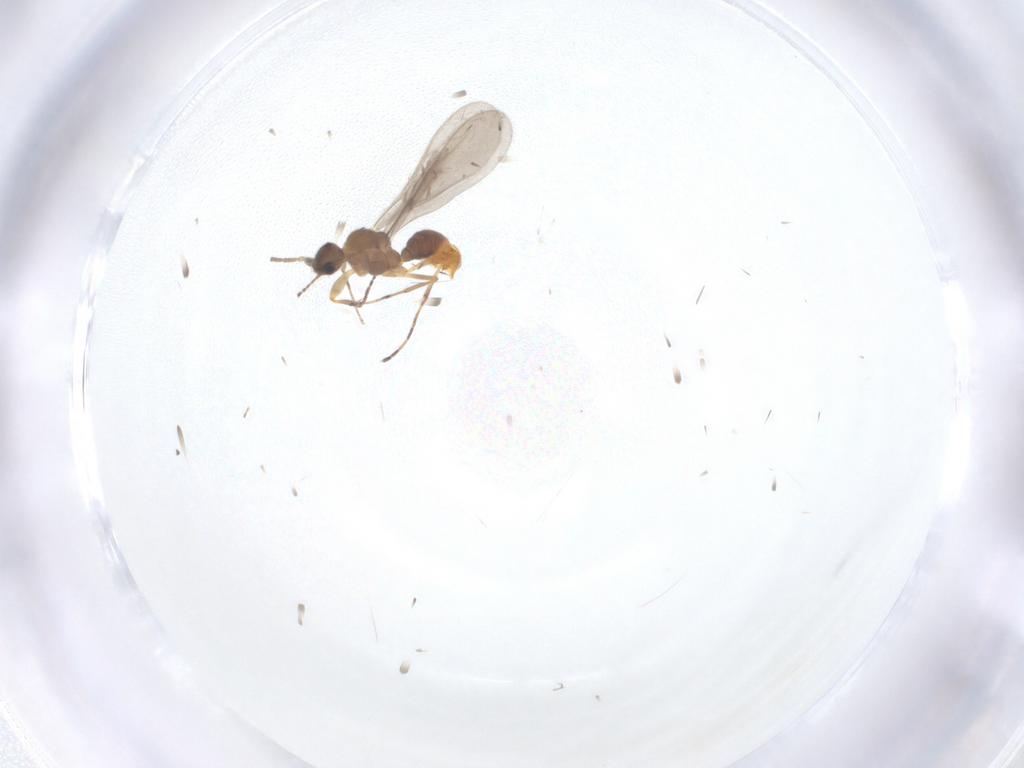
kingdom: Animalia
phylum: Arthropoda
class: Insecta
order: Hymenoptera
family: Formicidae
